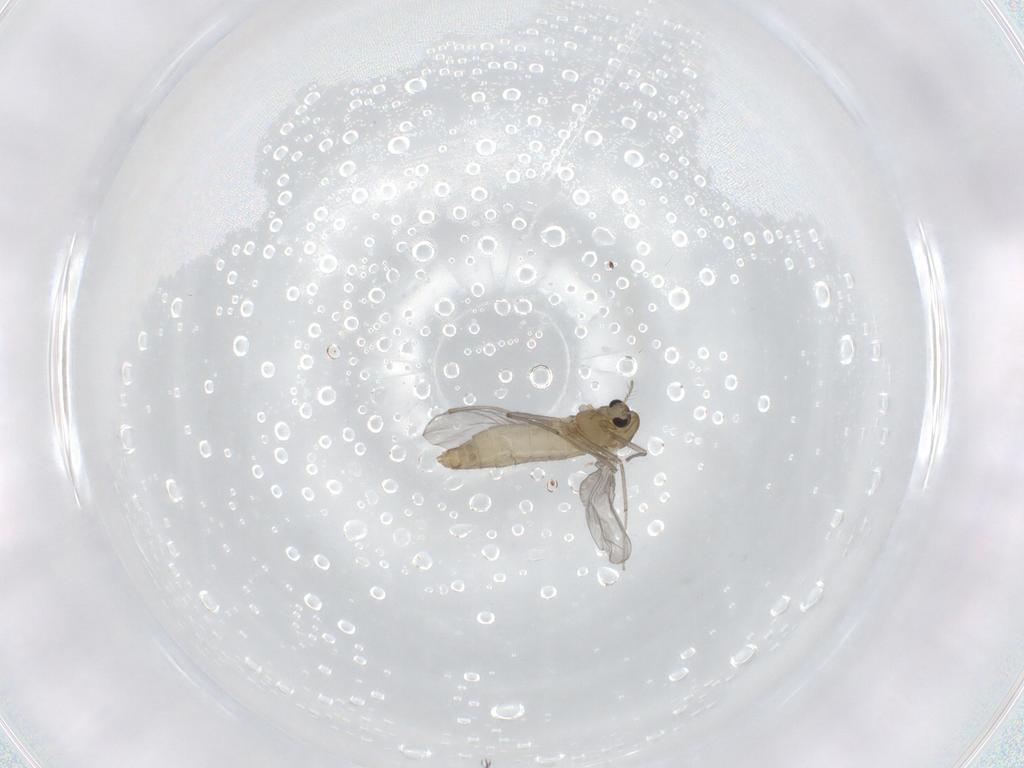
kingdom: Animalia
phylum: Arthropoda
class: Insecta
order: Diptera
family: Chironomidae
